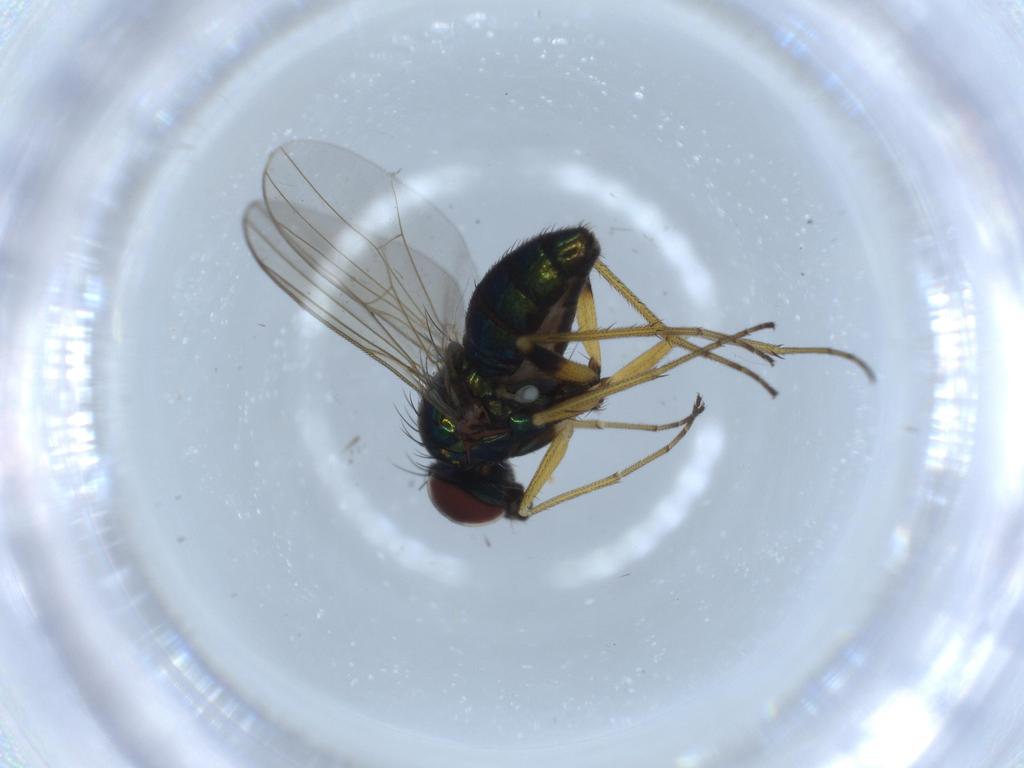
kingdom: Animalia
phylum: Arthropoda
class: Insecta
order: Diptera
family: Dolichopodidae
